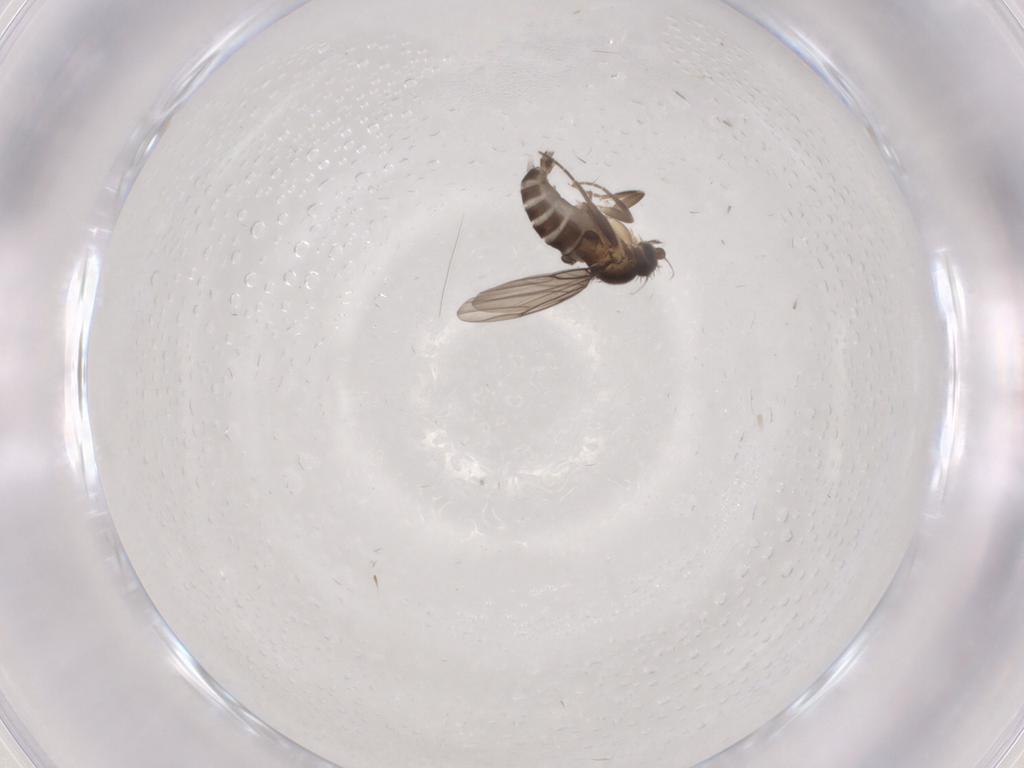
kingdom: Animalia
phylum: Arthropoda
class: Insecta
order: Diptera
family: Phoridae
